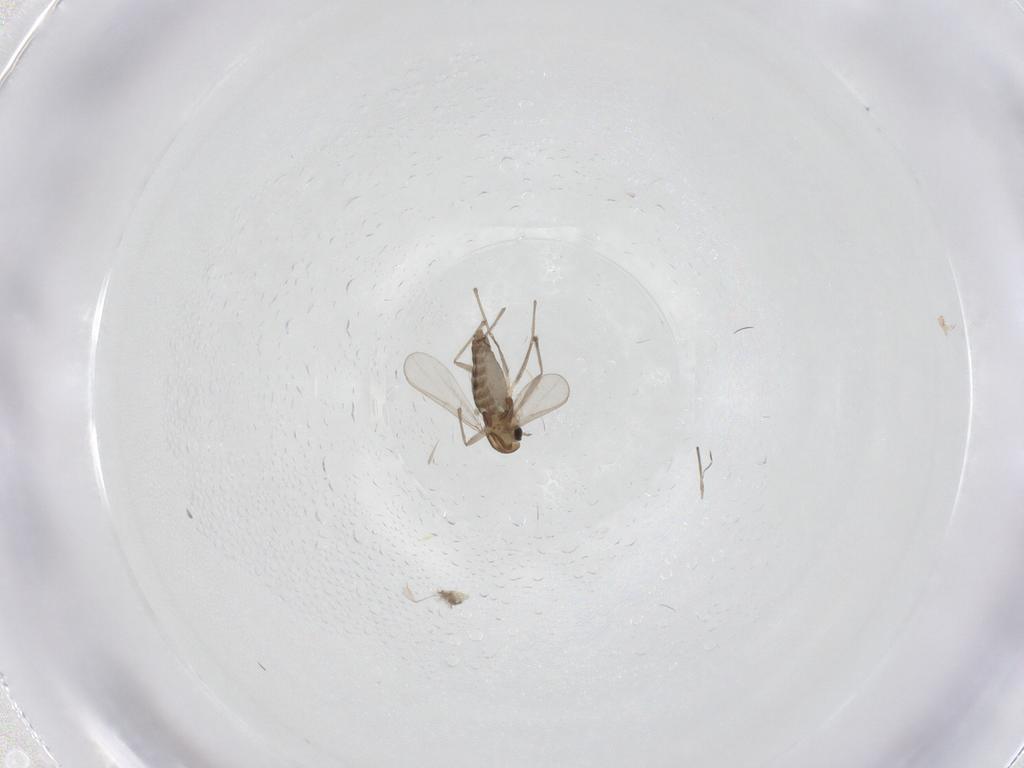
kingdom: Animalia
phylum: Arthropoda
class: Insecta
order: Diptera
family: Chironomidae
